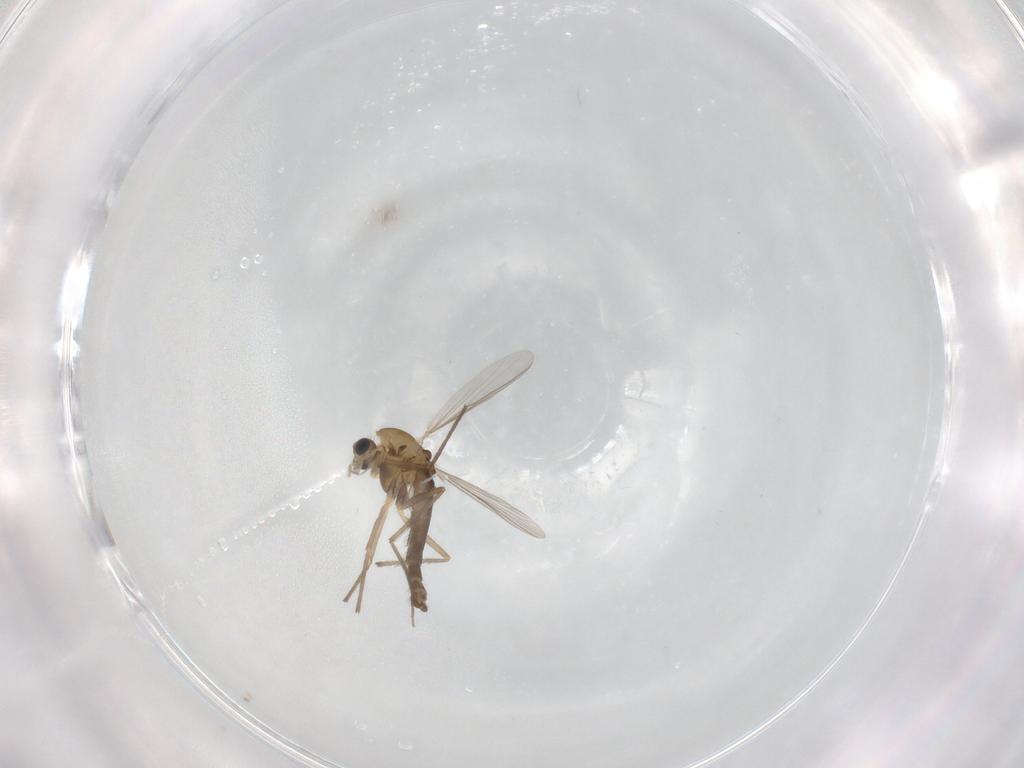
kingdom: Animalia
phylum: Arthropoda
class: Insecta
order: Diptera
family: Chironomidae
